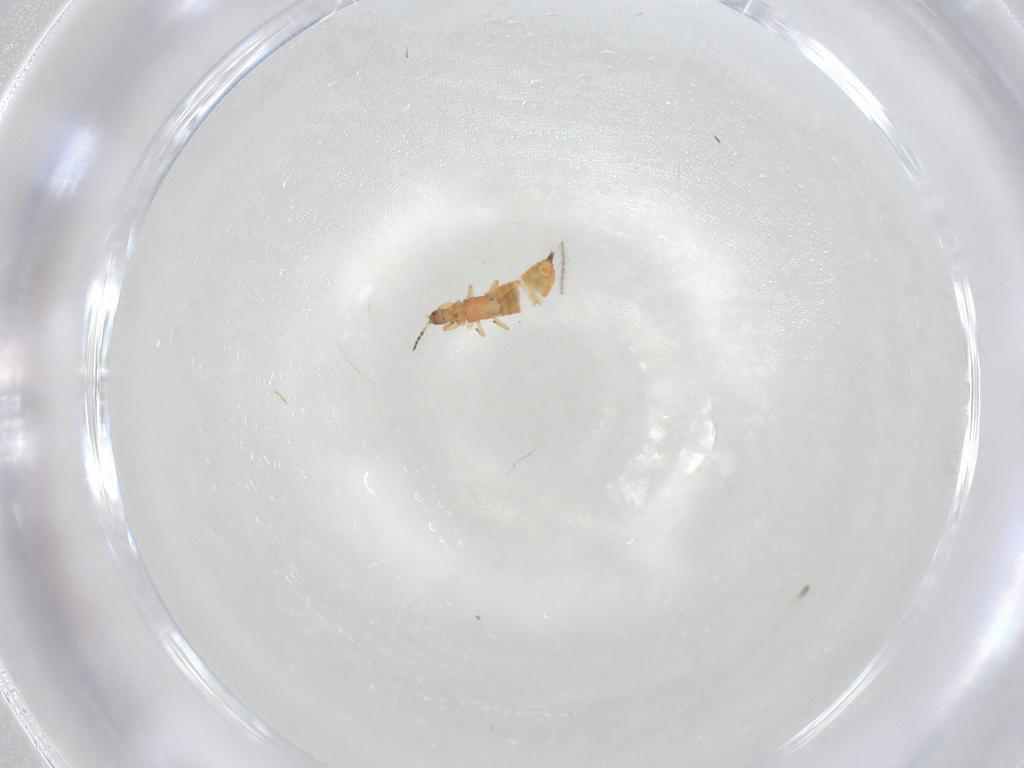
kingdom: Animalia
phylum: Arthropoda
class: Insecta
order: Thysanoptera
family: Phlaeothripidae
